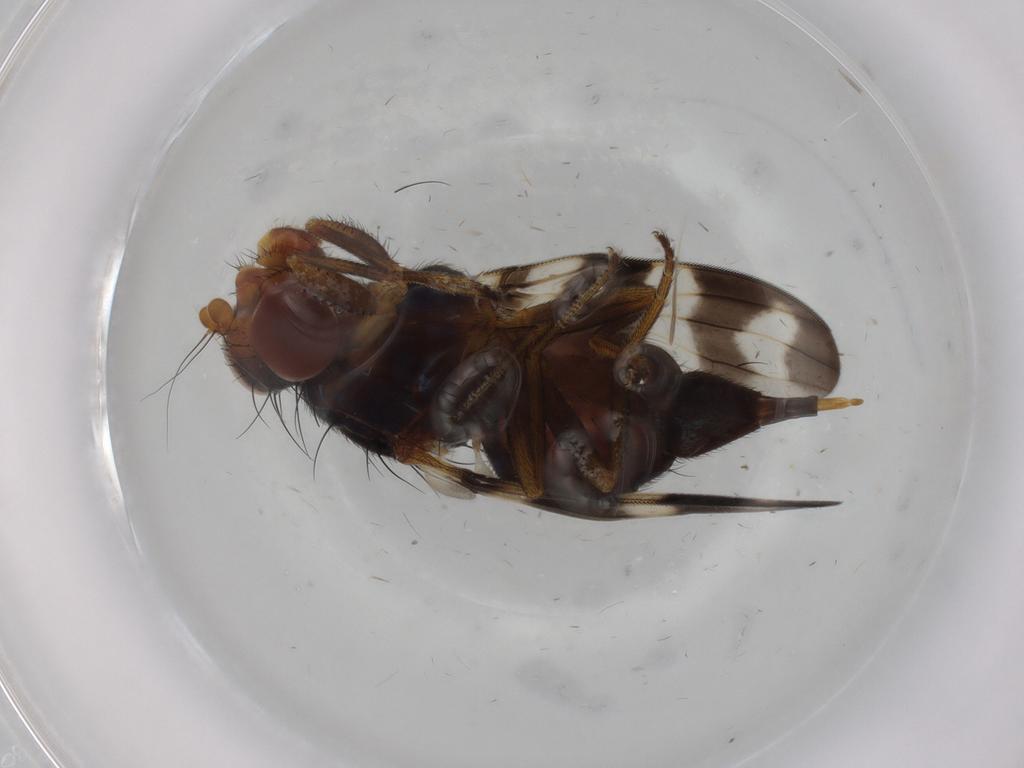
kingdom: Animalia
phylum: Arthropoda
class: Insecta
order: Diptera
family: Ulidiidae
